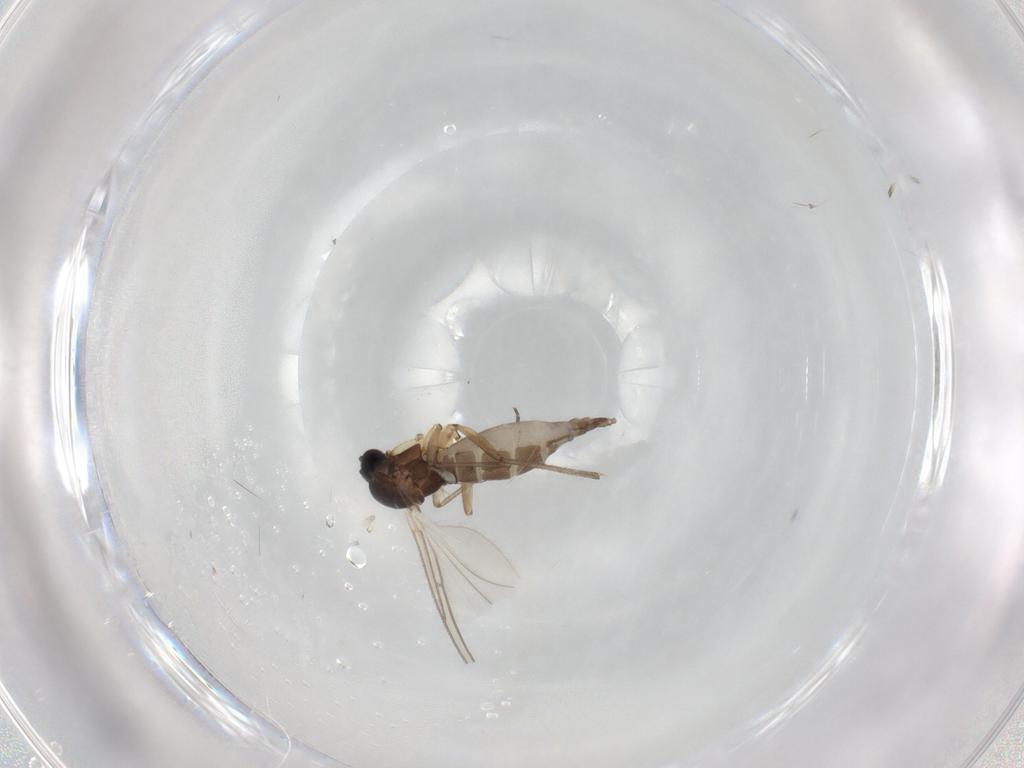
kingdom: Animalia
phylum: Arthropoda
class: Insecta
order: Diptera
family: Sciaridae
